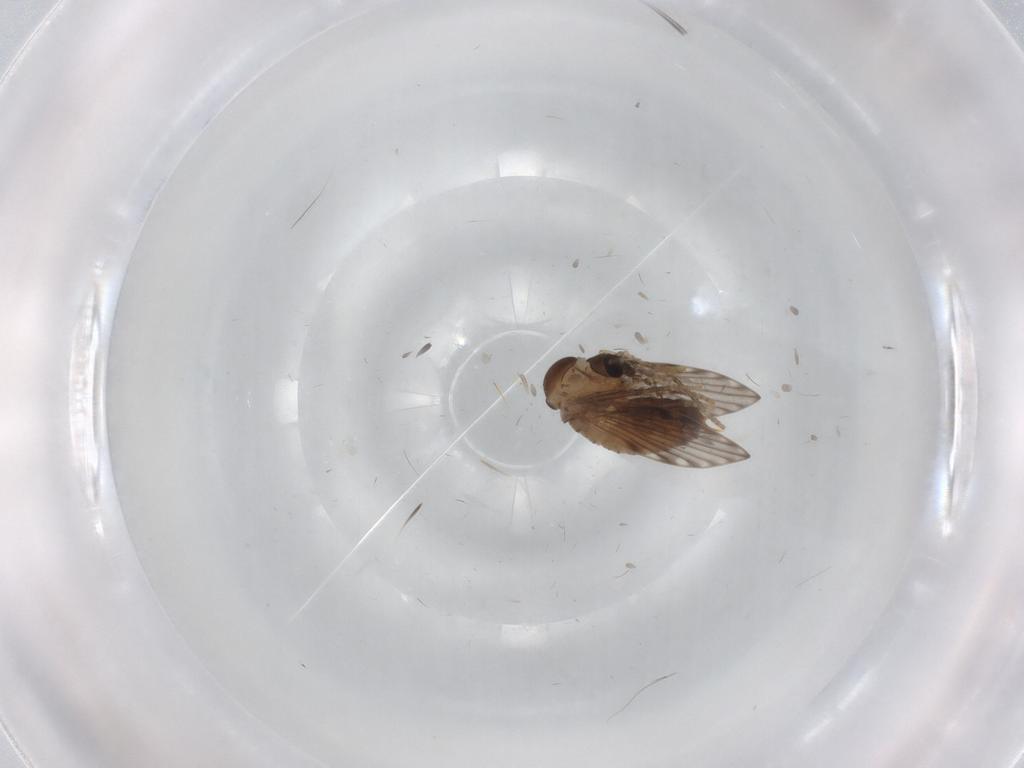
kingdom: Animalia
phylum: Arthropoda
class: Insecta
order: Diptera
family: Psychodidae
